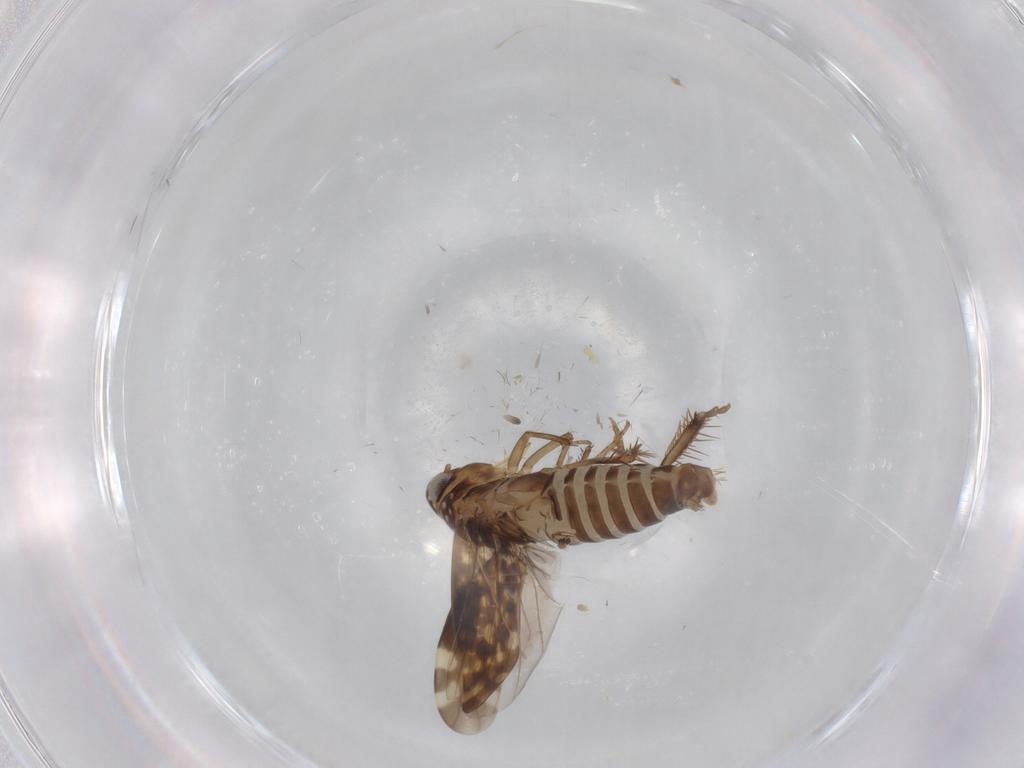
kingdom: Animalia
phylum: Arthropoda
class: Insecta
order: Hemiptera
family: Cicadellidae
